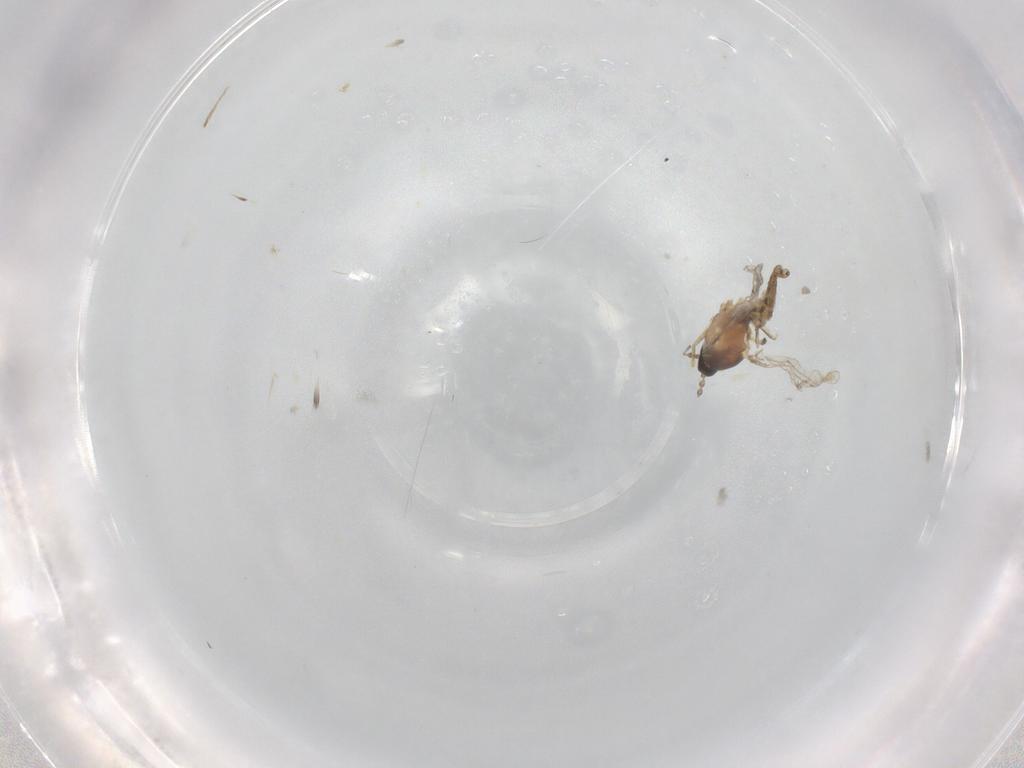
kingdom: Animalia
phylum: Arthropoda
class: Insecta
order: Diptera
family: Cecidomyiidae
